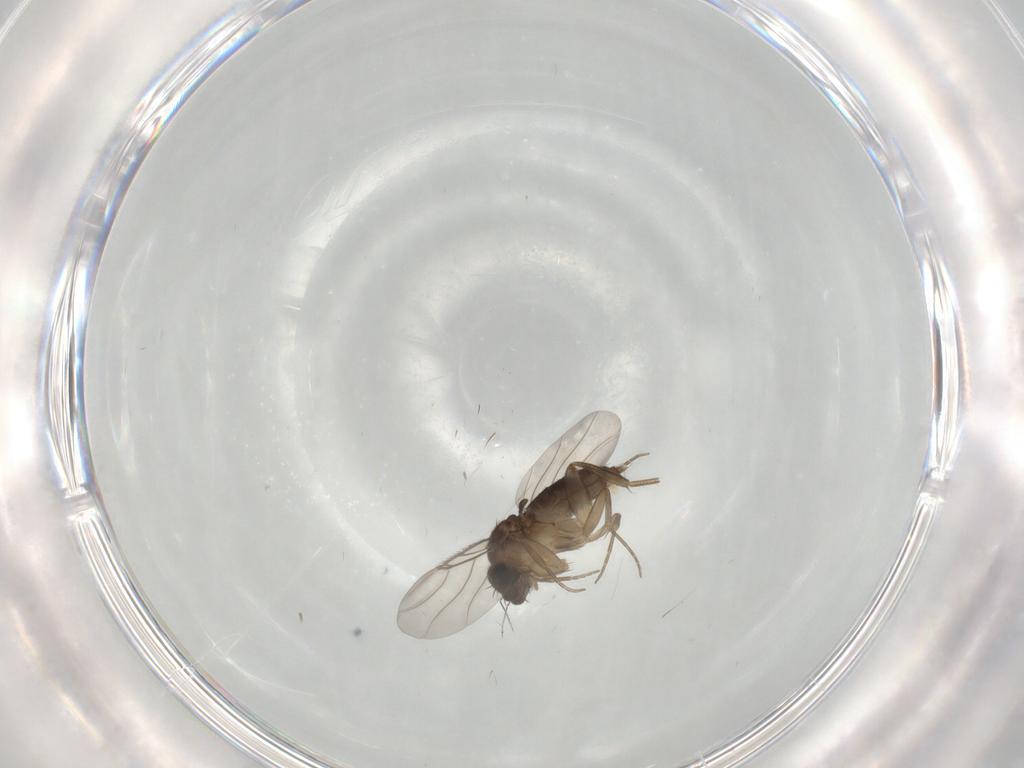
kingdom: Animalia
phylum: Arthropoda
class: Insecta
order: Diptera
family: Phoridae
